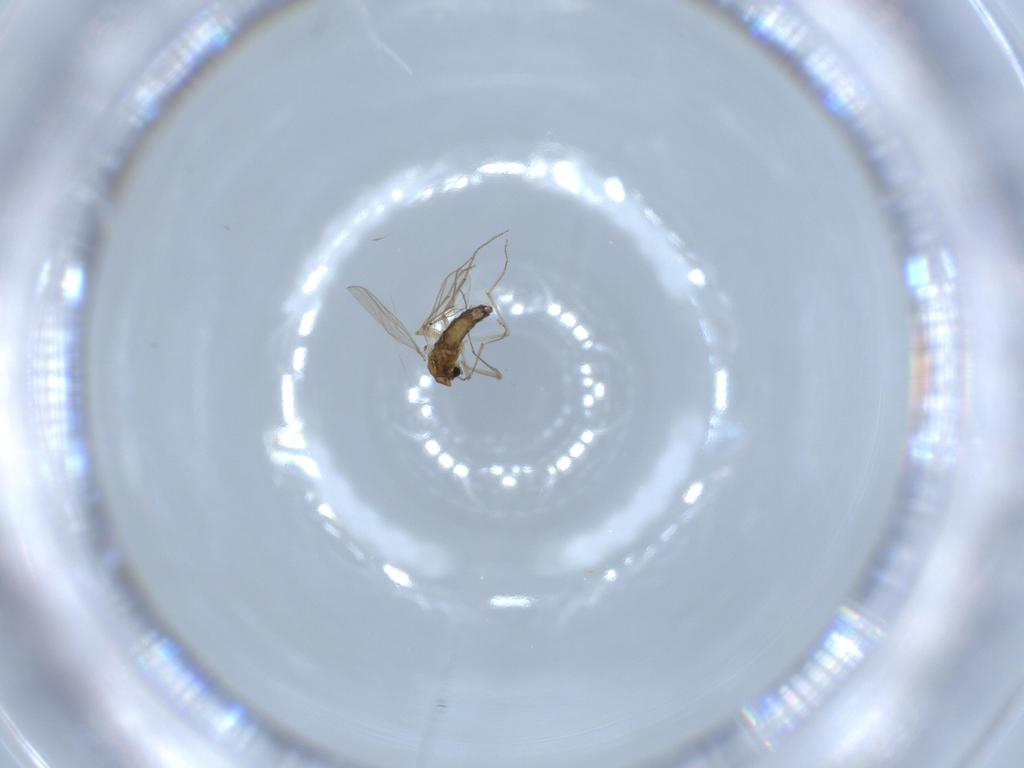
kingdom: Animalia
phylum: Arthropoda
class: Insecta
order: Diptera
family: Chironomidae
